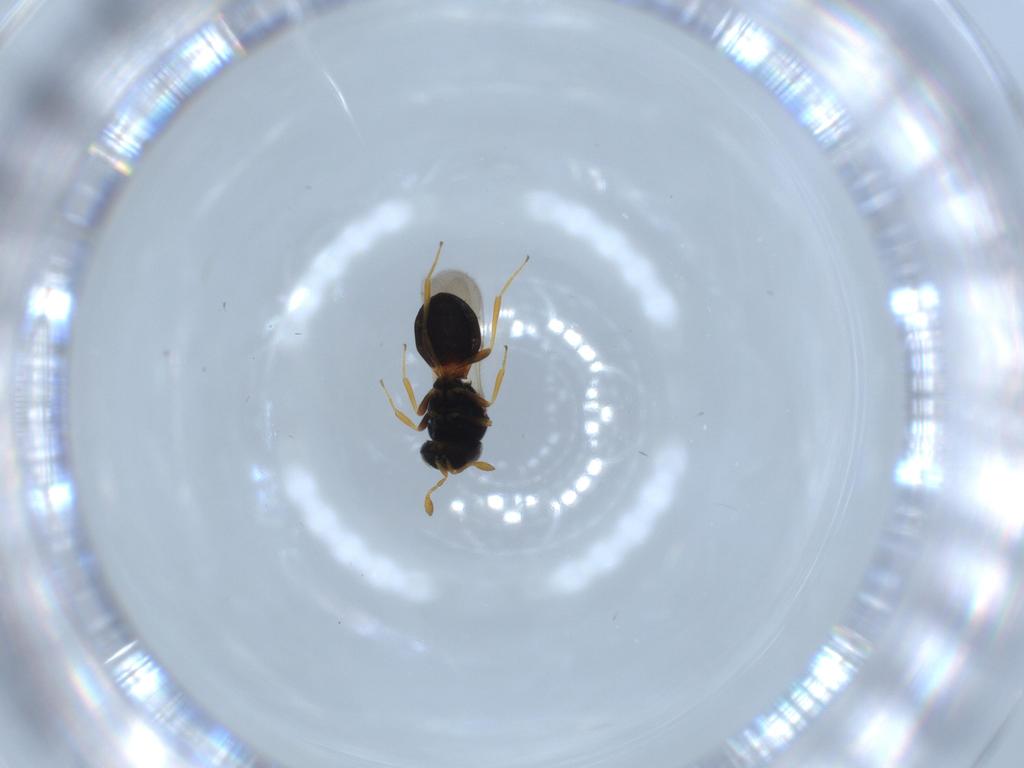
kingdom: Animalia
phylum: Arthropoda
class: Insecta
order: Hymenoptera
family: Scelionidae
